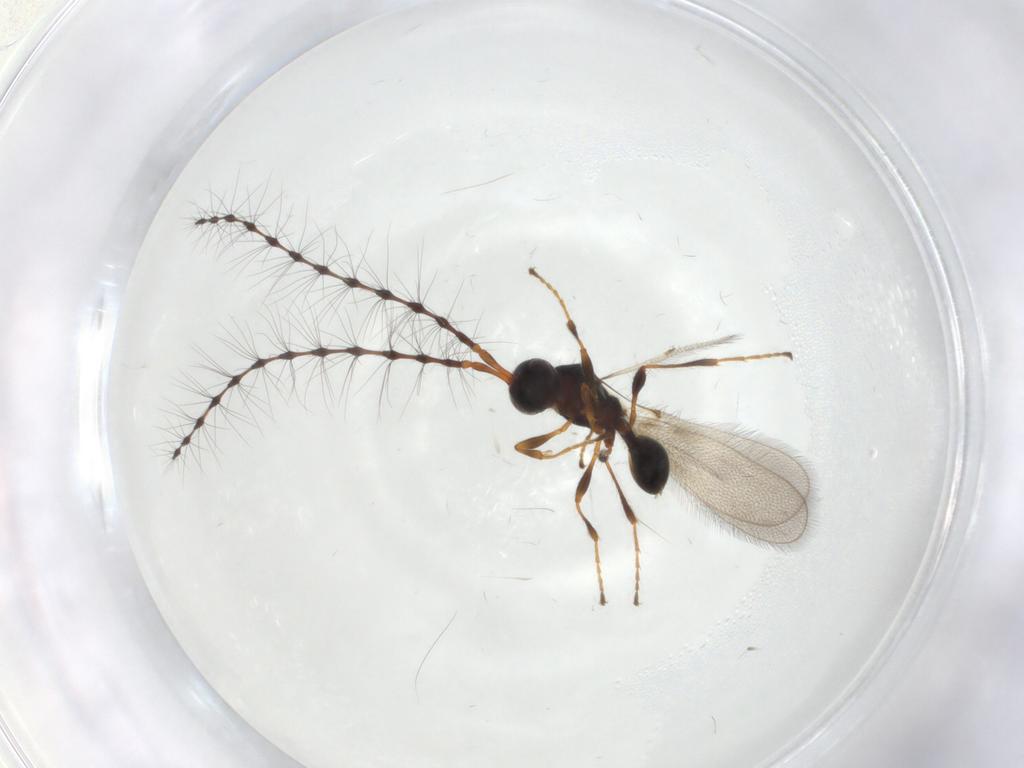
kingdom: Animalia
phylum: Arthropoda
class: Insecta
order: Hymenoptera
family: Diapriidae
